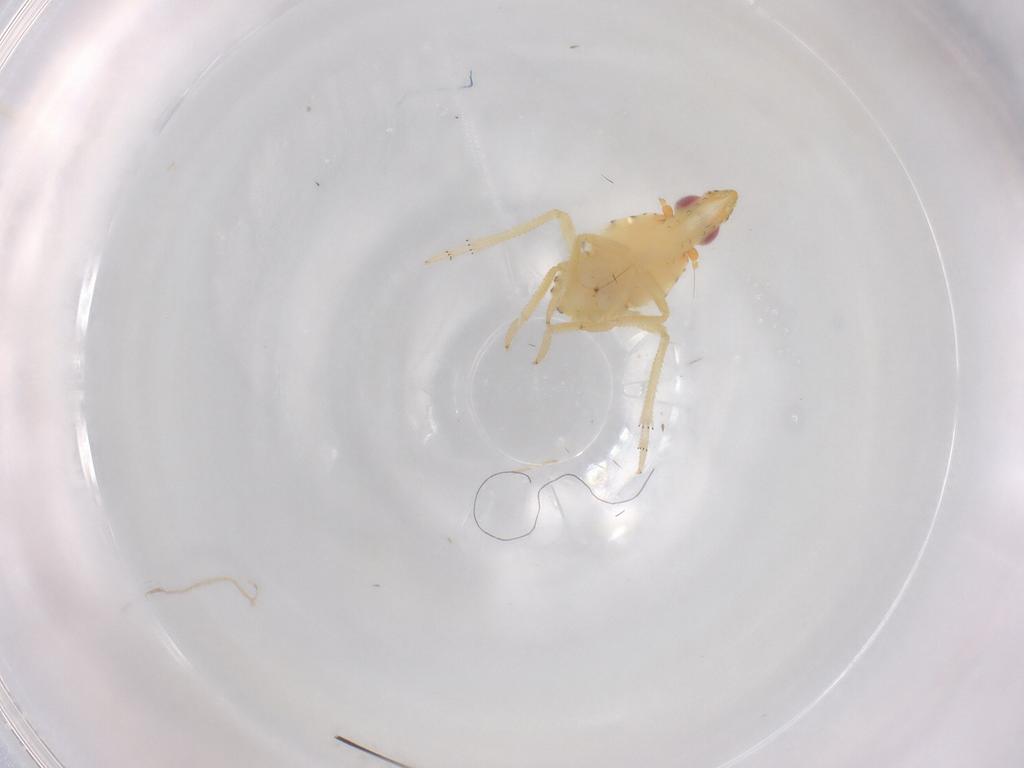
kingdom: Animalia
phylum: Arthropoda
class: Insecta
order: Hemiptera
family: Tropiduchidae
